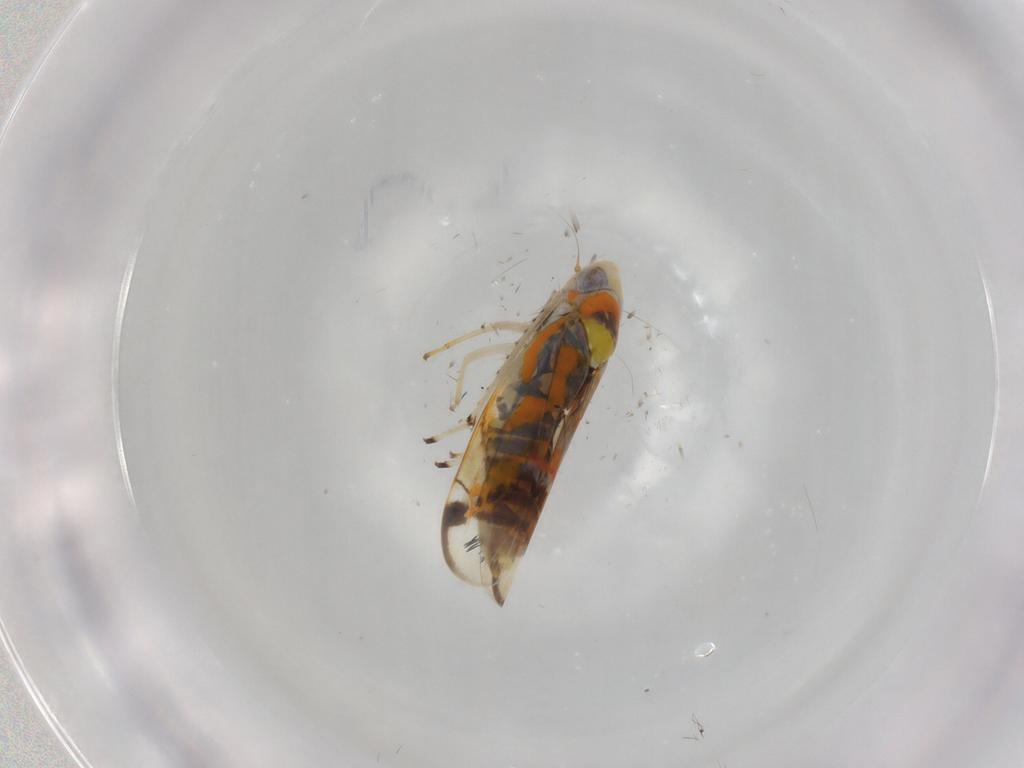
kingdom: Animalia
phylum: Arthropoda
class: Insecta
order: Hemiptera
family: Cicadellidae
